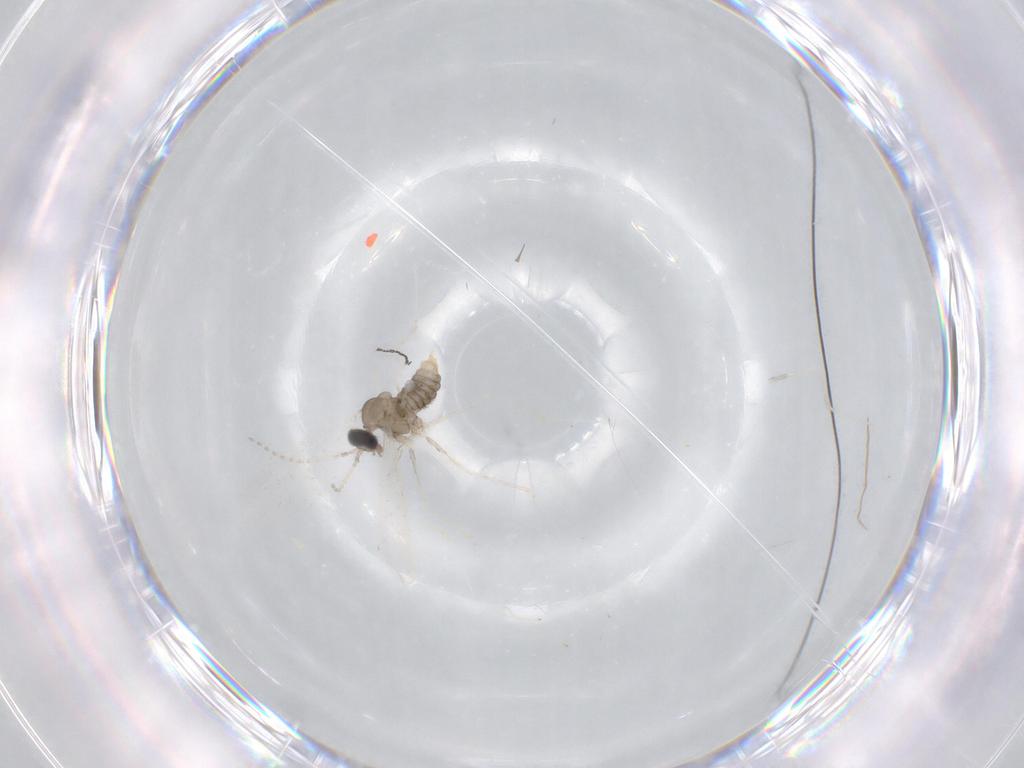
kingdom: Animalia
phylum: Arthropoda
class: Insecta
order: Diptera
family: Cecidomyiidae
